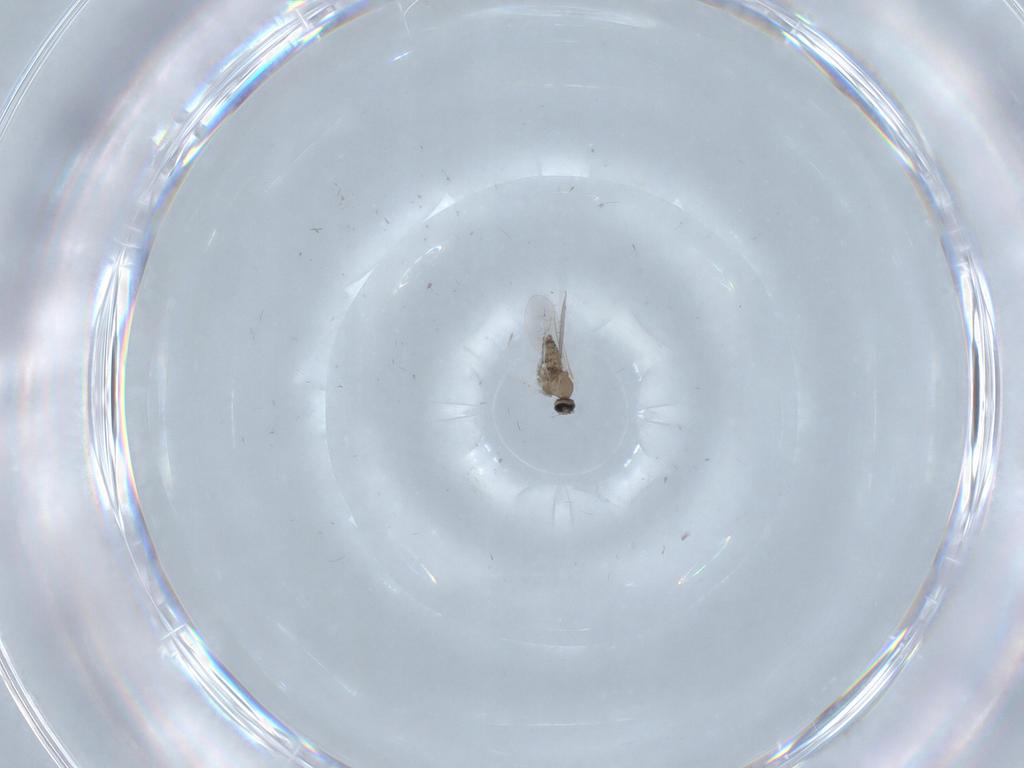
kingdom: Animalia
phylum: Arthropoda
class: Insecta
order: Diptera
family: Cecidomyiidae
